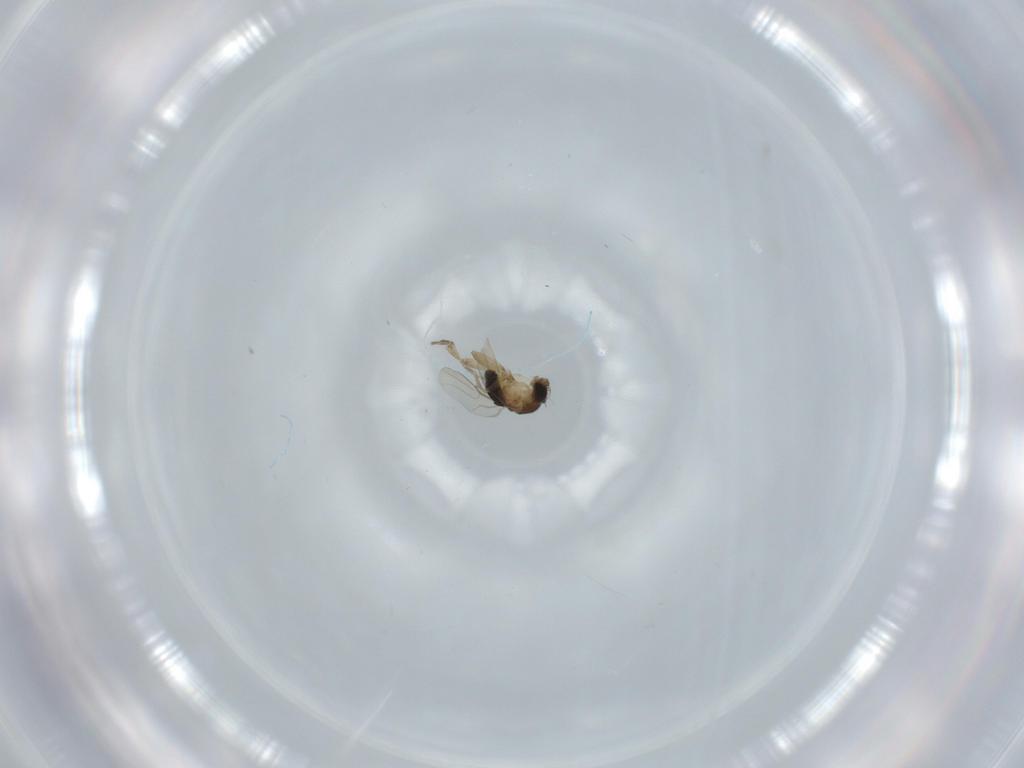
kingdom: Animalia
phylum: Arthropoda
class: Insecta
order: Diptera
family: Phoridae
